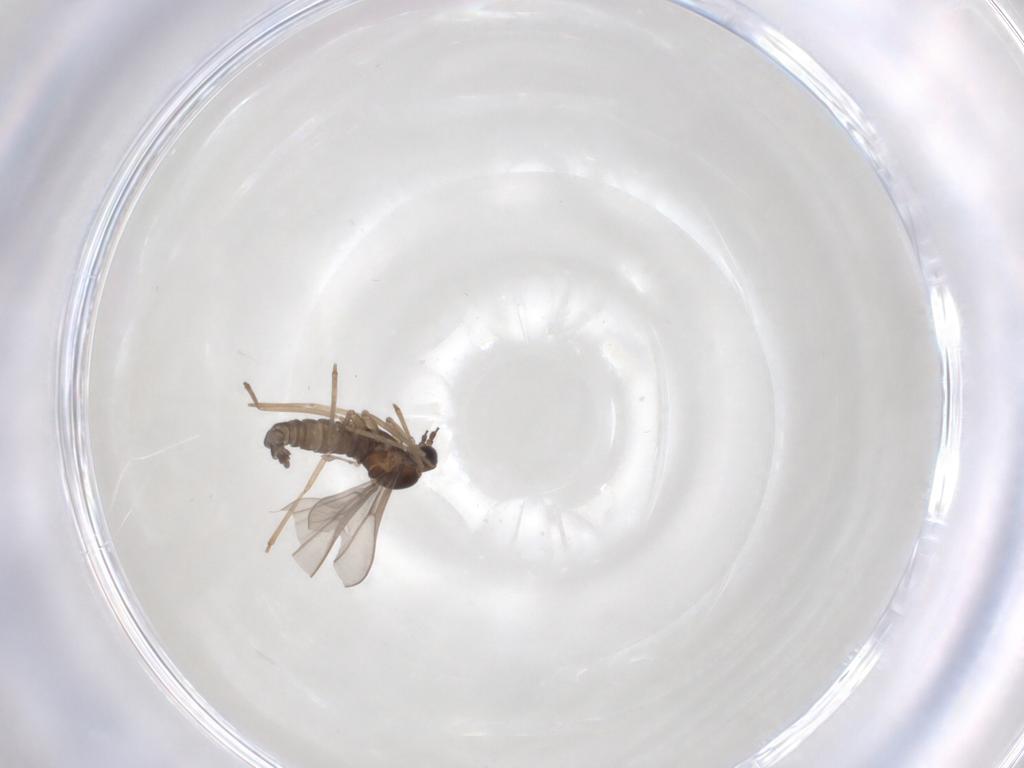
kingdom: Animalia
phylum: Arthropoda
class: Insecta
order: Diptera
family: Cecidomyiidae
